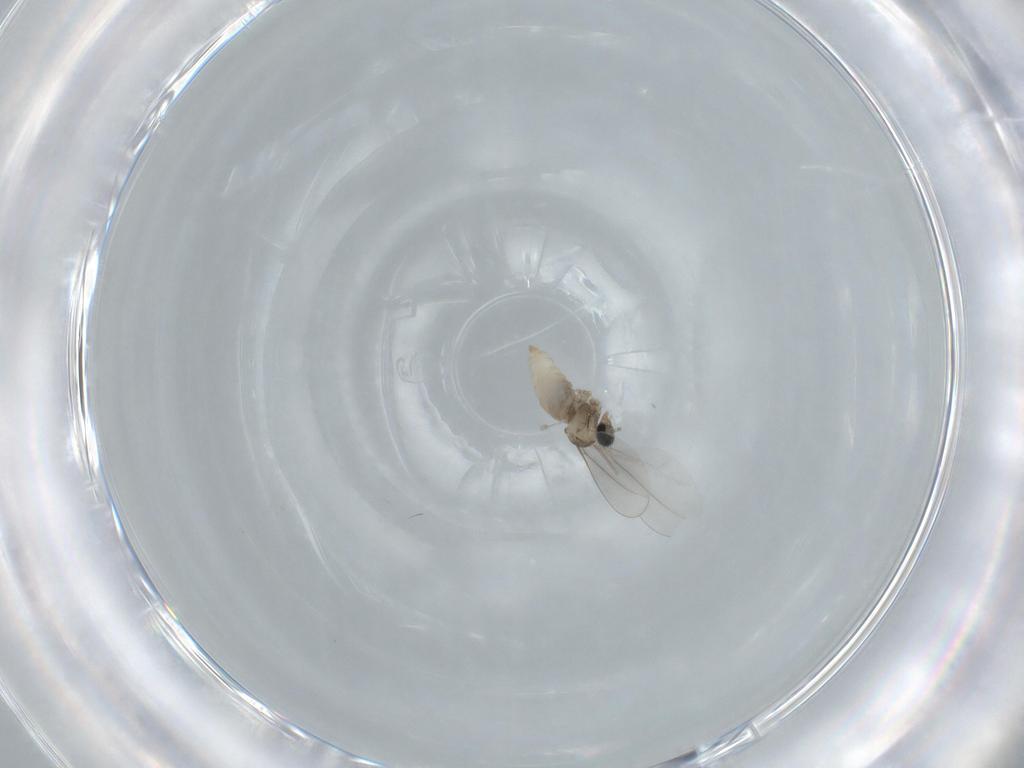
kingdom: Animalia
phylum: Arthropoda
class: Insecta
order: Diptera
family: Cecidomyiidae
